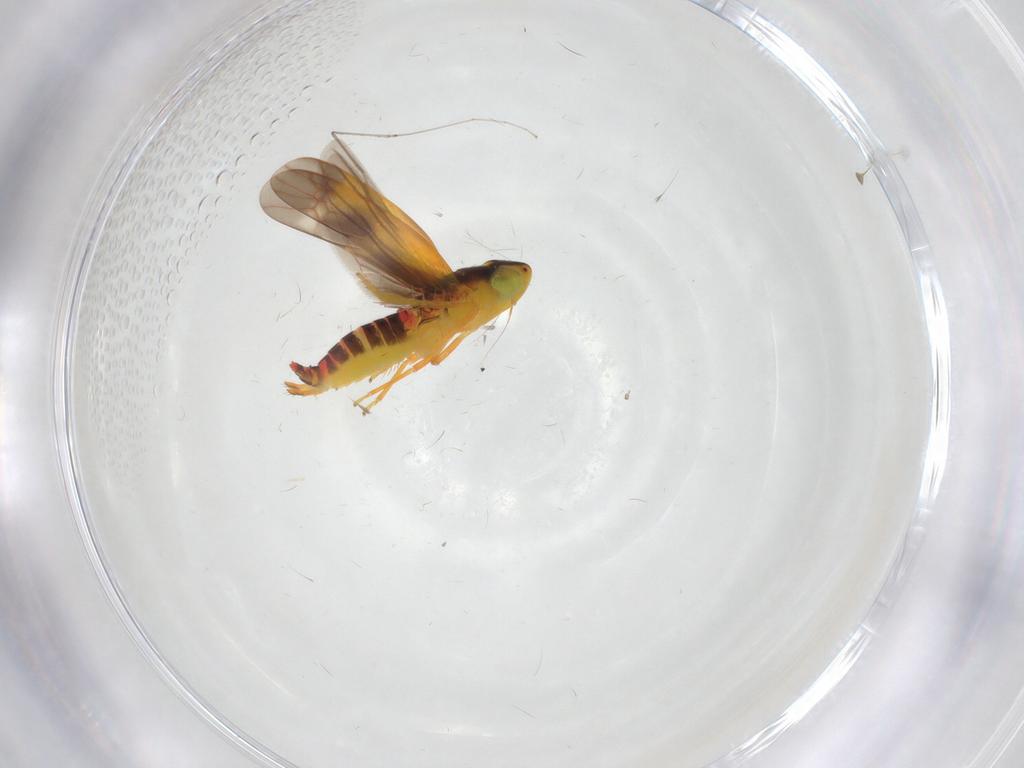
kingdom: Animalia
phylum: Arthropoda
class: Insecta
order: Hemiptera
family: Cicadellidae
